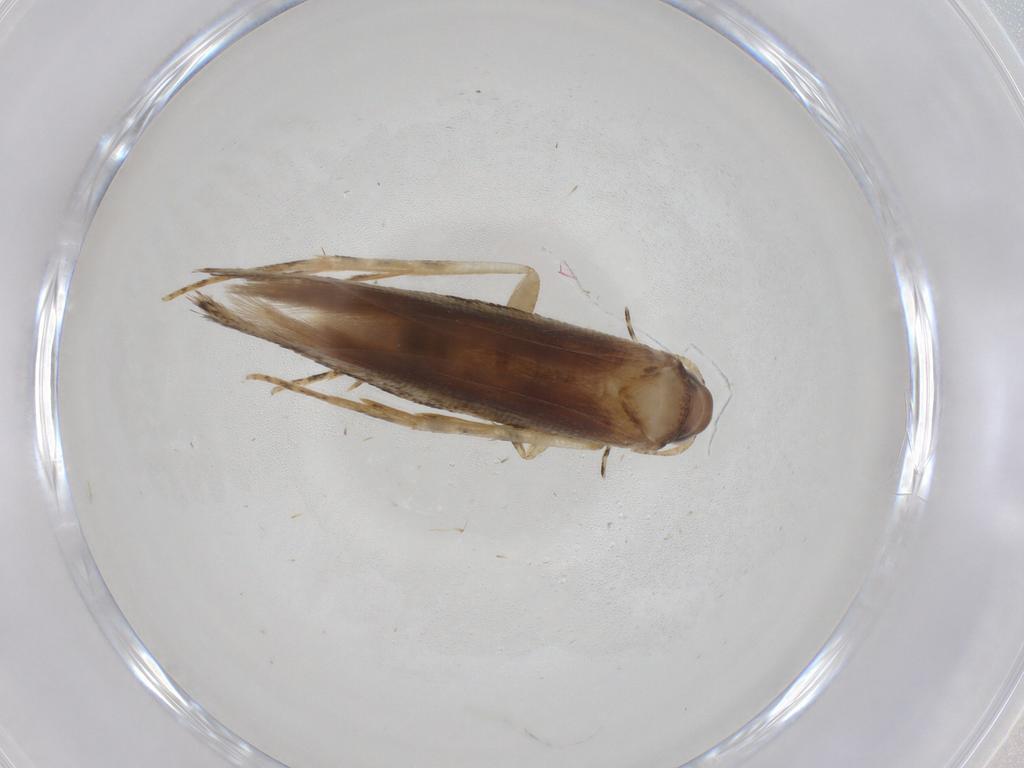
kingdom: Animalia
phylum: Arthropoda
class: Insecta
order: Lepidoptera
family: Gelechiidae
